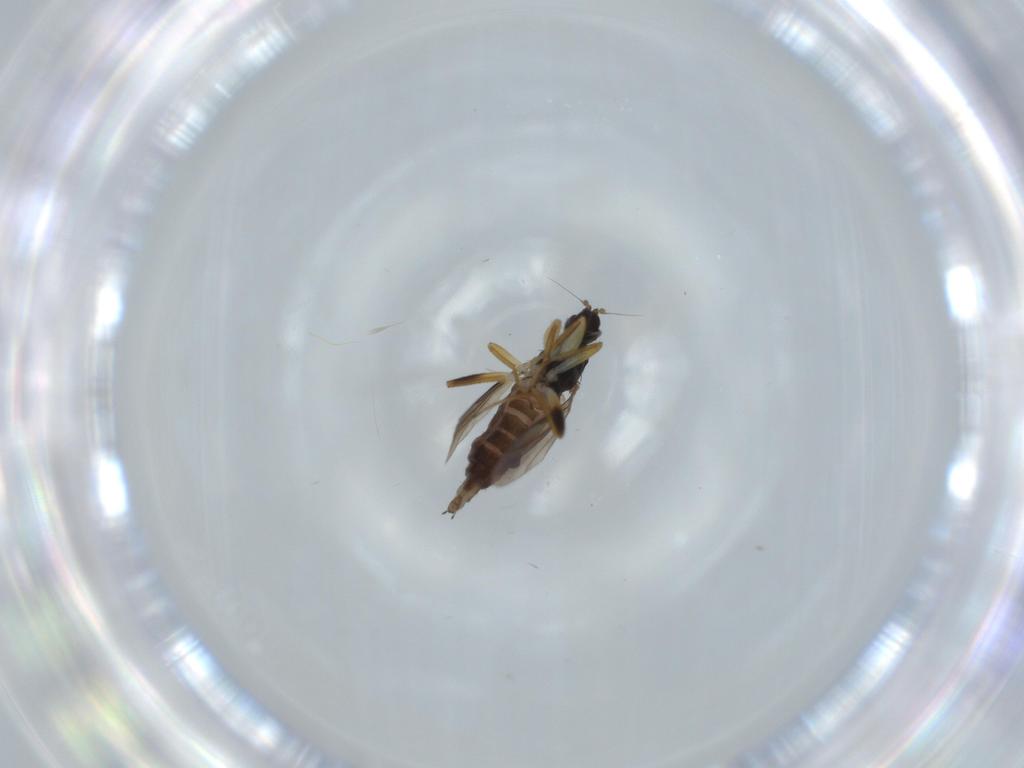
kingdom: Animalia
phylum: Arthropoda
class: Insecta
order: Diptera
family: Hybotidae
